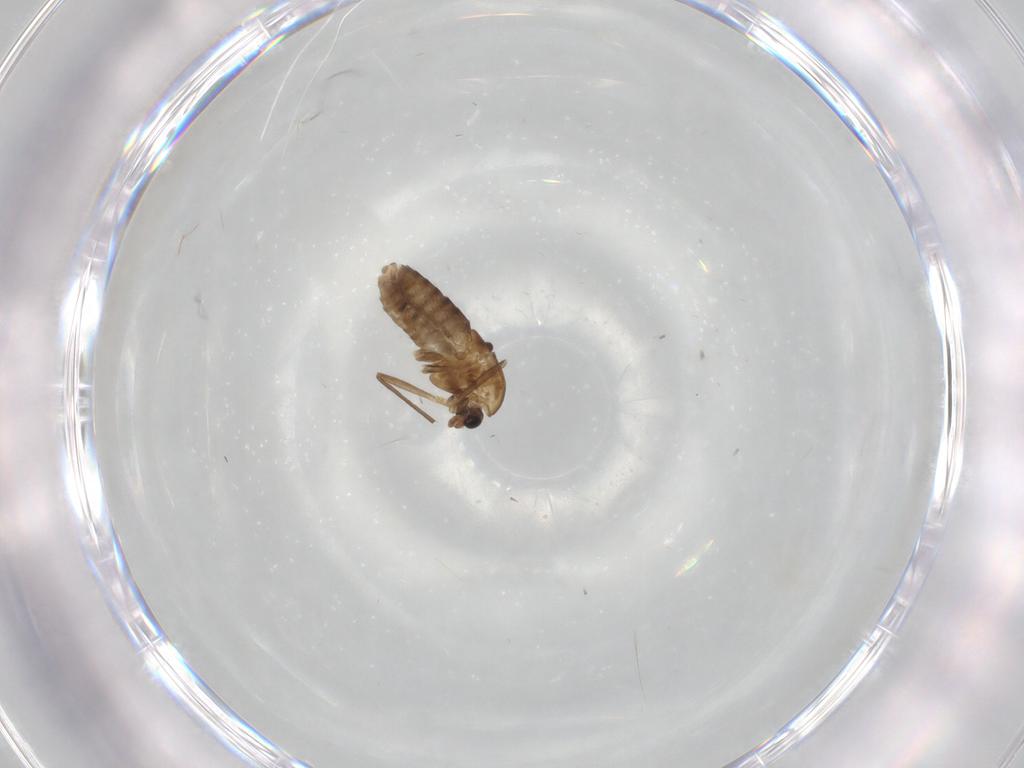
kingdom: Animalia
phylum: Arthropoda
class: Insecta
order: Diptera
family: Chironomidae
